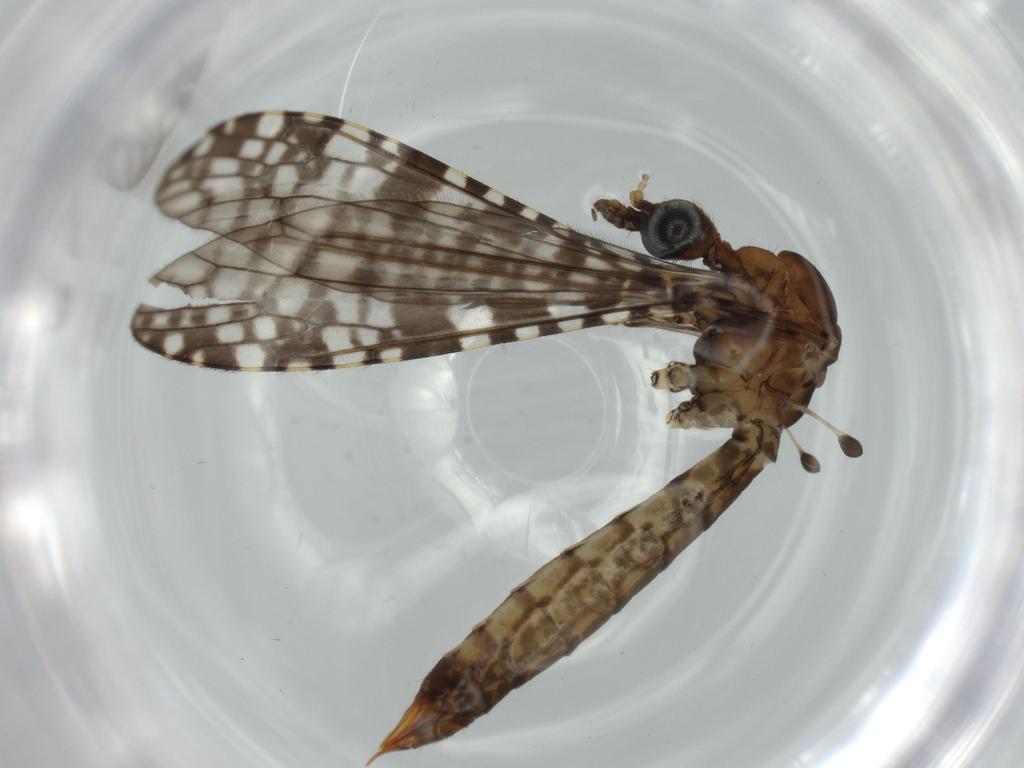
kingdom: Animalia
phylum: Arthropoda
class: Insecta
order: Diptera
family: Limoniidae
